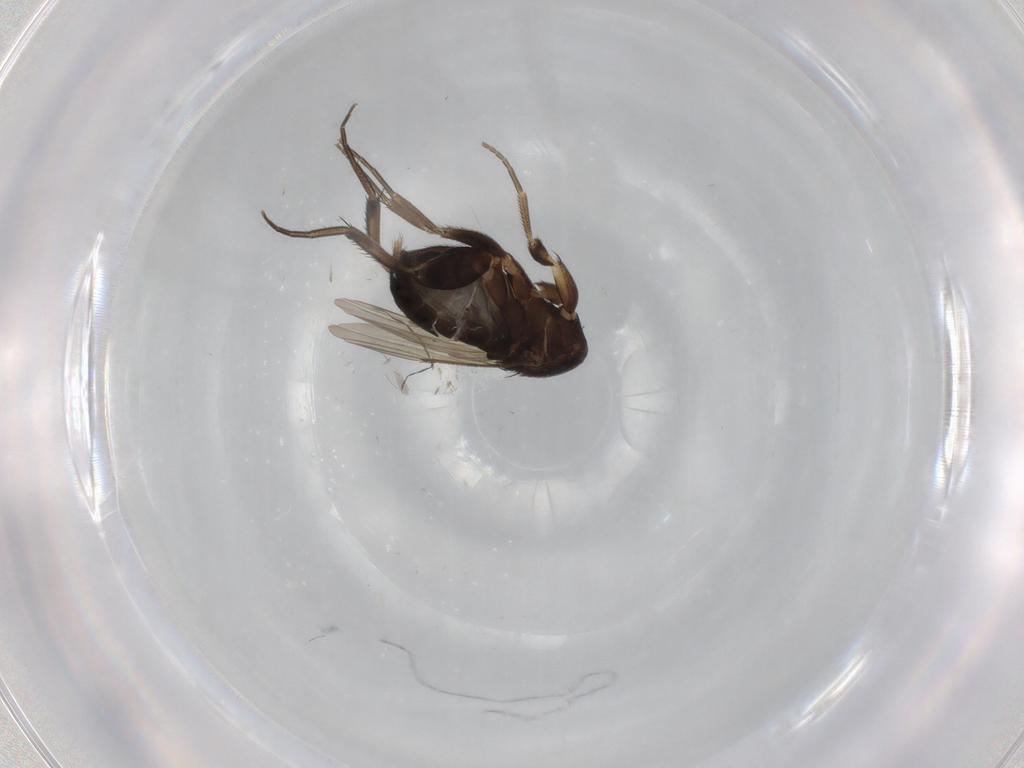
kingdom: Animalia
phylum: Arthropoda
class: Insecta
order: Diptera
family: Phoridae
